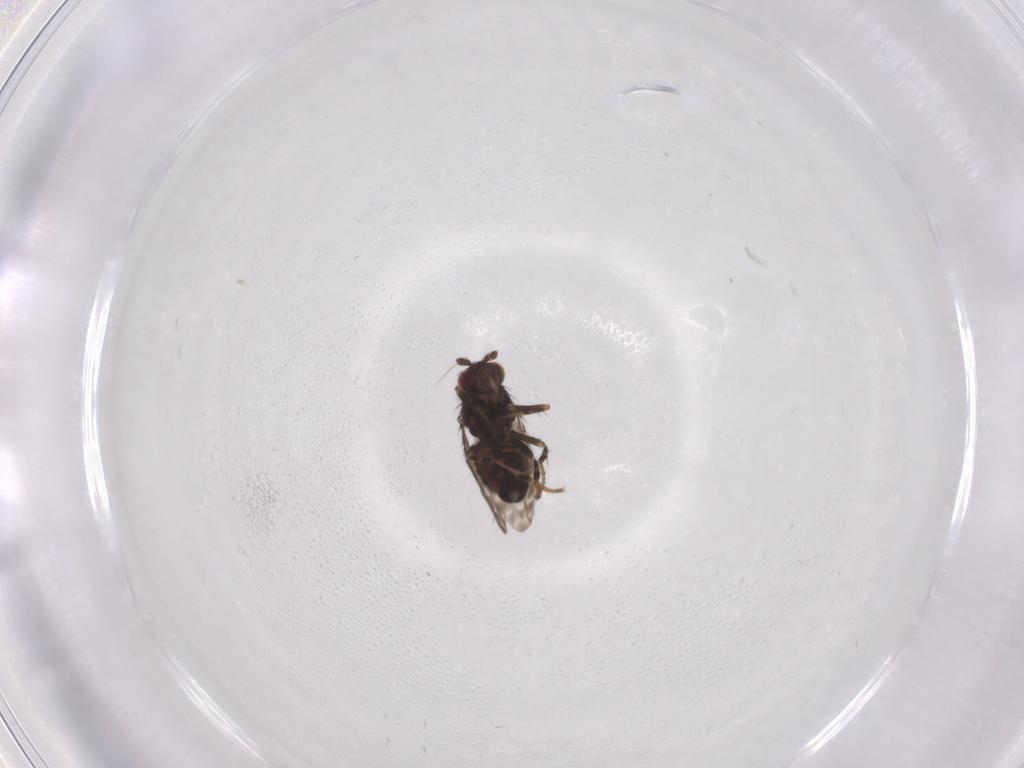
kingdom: Animalia
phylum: Arthropoda
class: Insecta
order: Diptera
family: Sphaeroceridae
